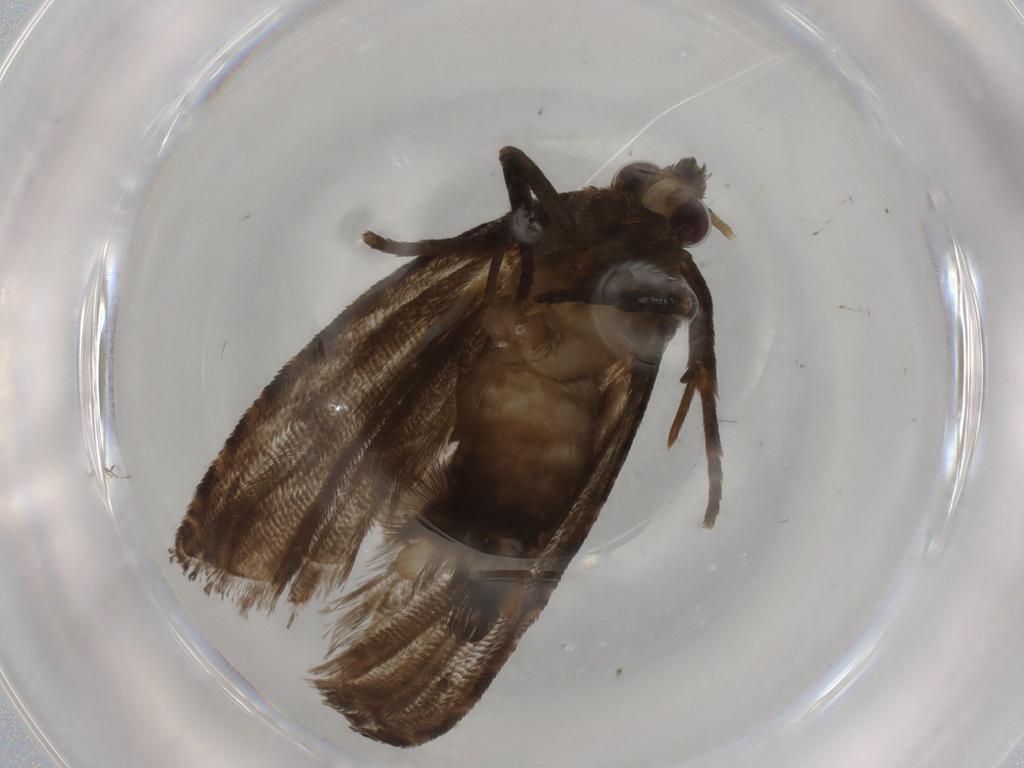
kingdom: Animalia
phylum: Arthropoda
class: Insecta
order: Lepidoptera
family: Tortricidae
